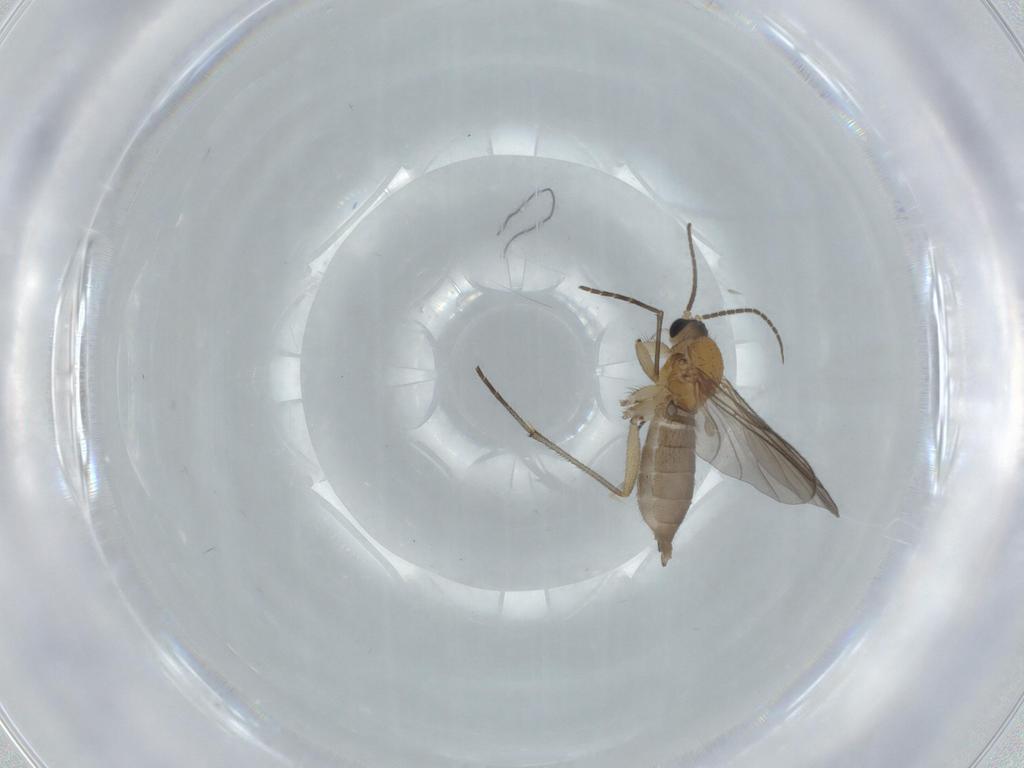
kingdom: Animalia
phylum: Arthropoda
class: Insecta
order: Diptera
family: Sciaridae
